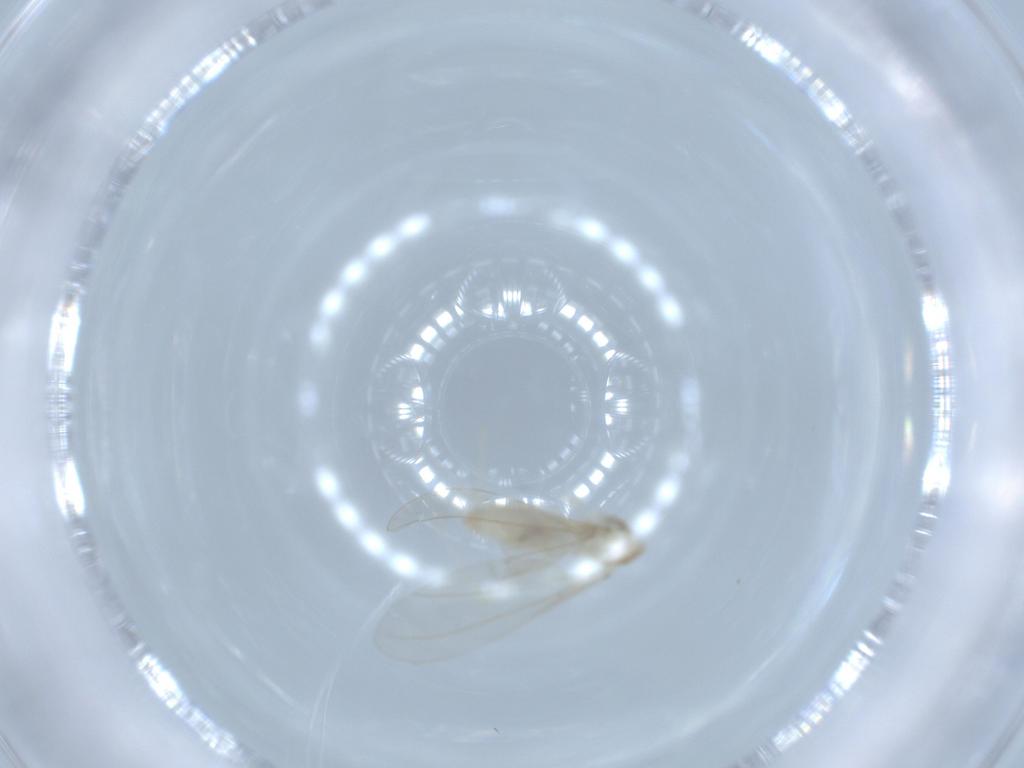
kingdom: Animalia
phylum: Arthropoda
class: Insecta
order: Diptera
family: Cecidomyiidae
